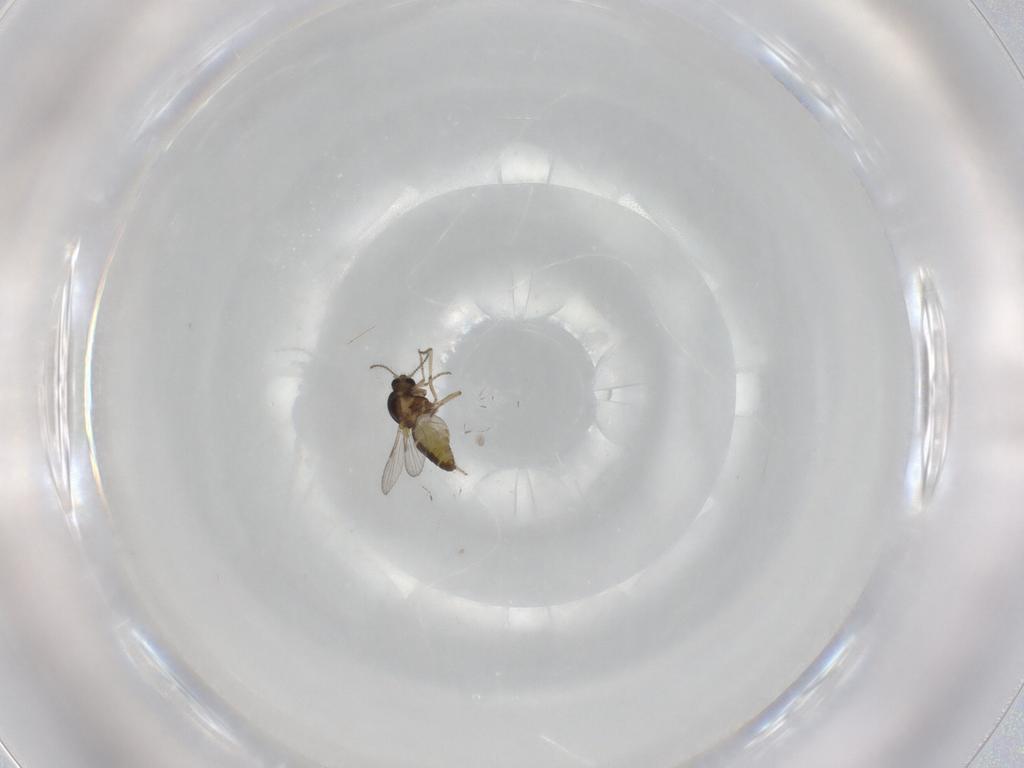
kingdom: Animalia
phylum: Arthropoda
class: Insecta
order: Diptera
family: Ceratopogonidae
